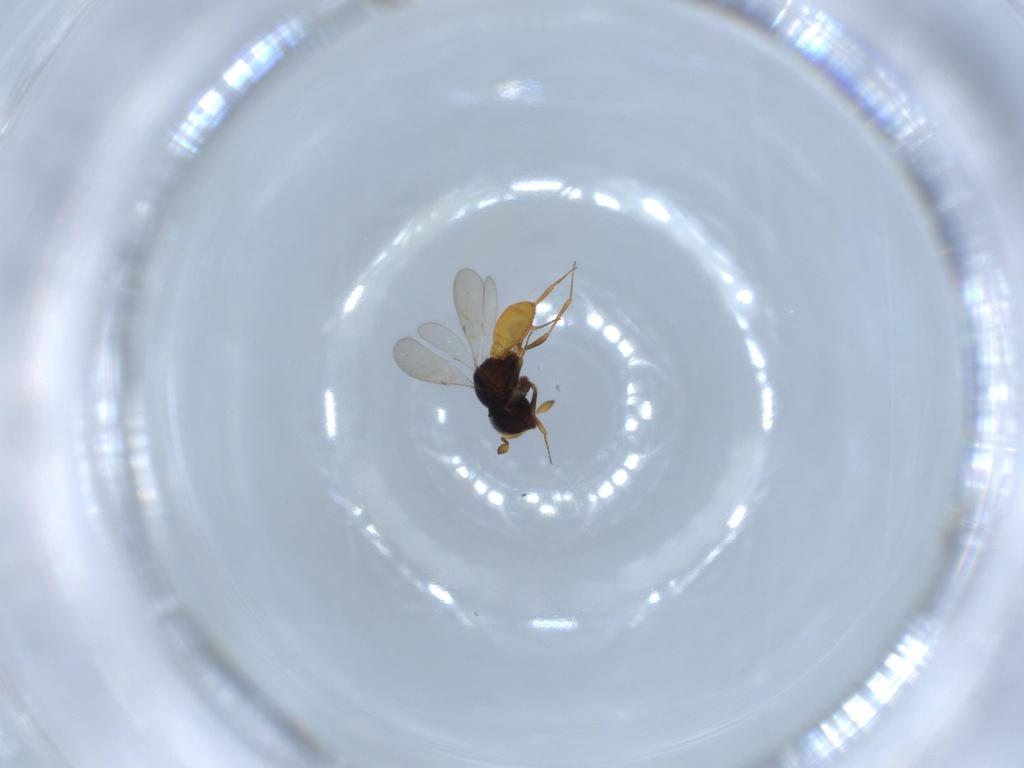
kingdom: Animalia
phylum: Arthropoda
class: Insecta
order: Hymenoptera
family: Scelionidae
